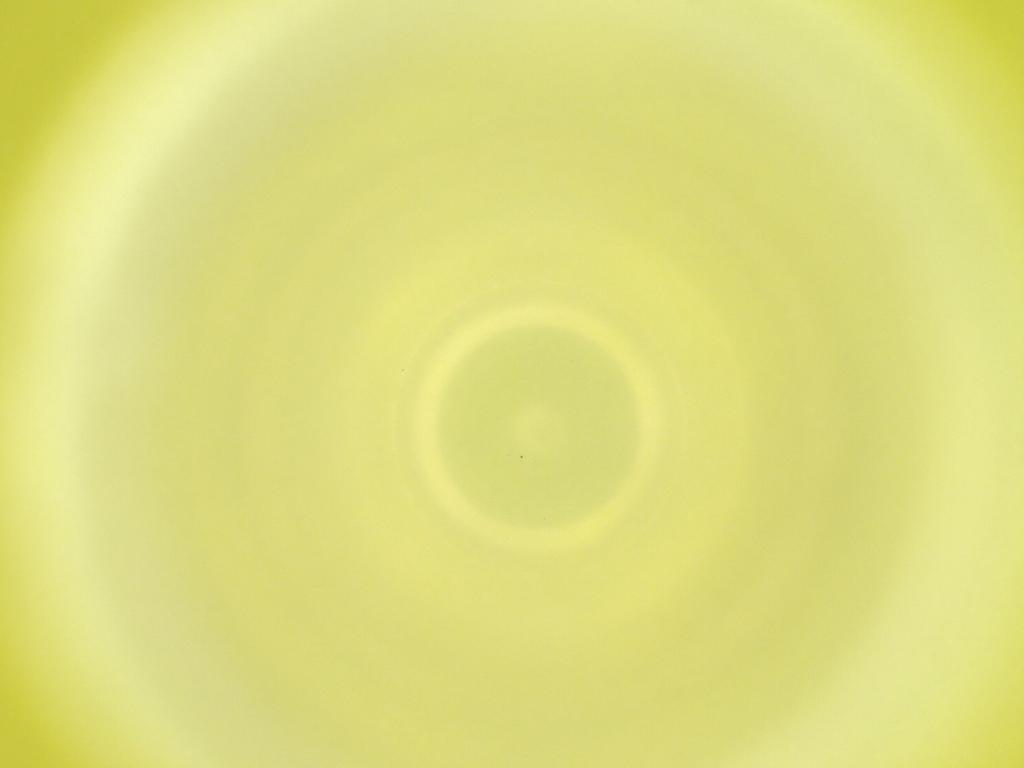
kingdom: Animalia
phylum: Arthropoda
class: Insecta
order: Diptera
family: Cecidomyiidae
